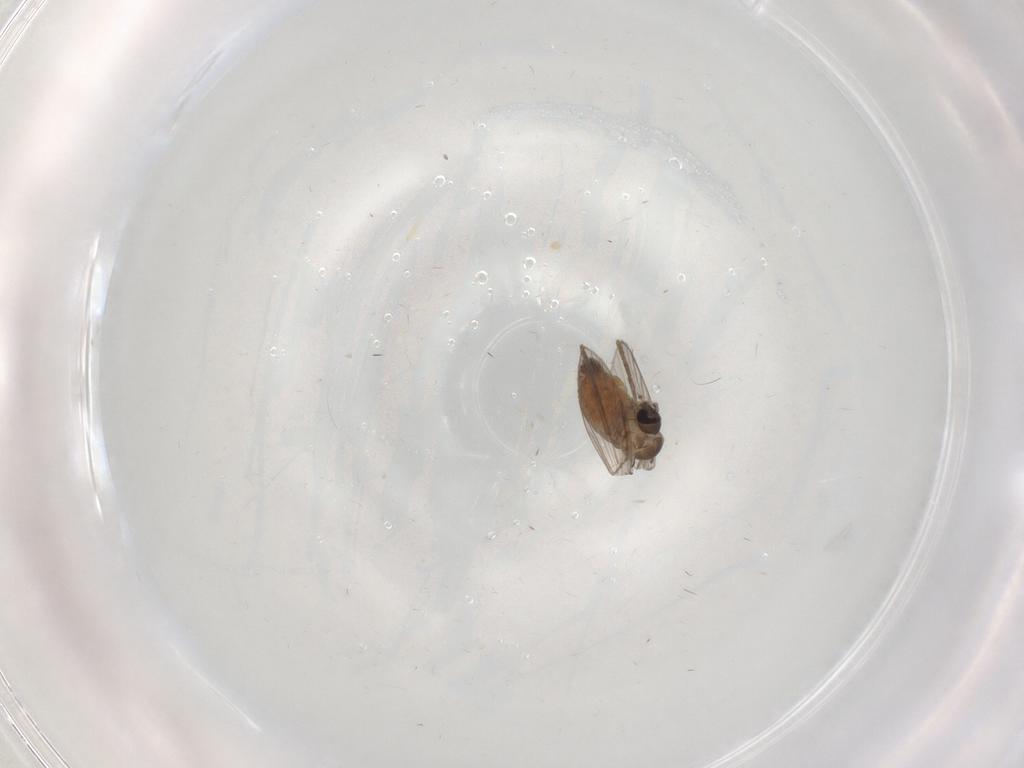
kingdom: Animalia
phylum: Arthropoda
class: Insecta
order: Diptera
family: Psychodidae
